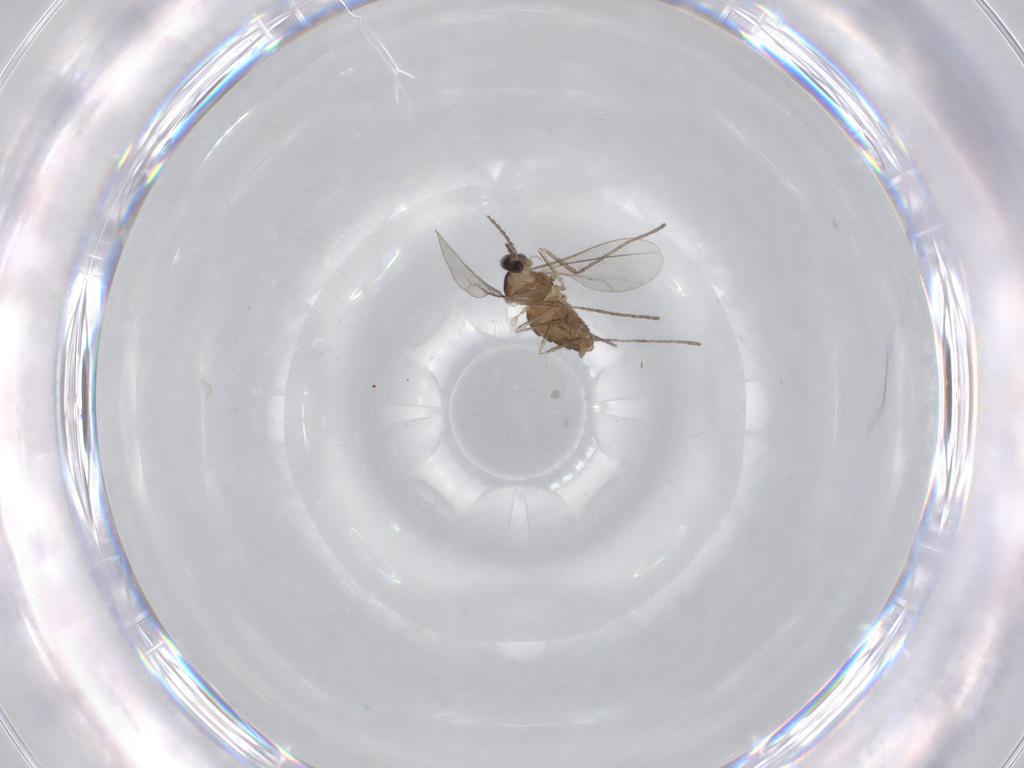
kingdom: Animalia
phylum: Arthropoda
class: Insecta
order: Diptera
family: Cecidomyiidae
